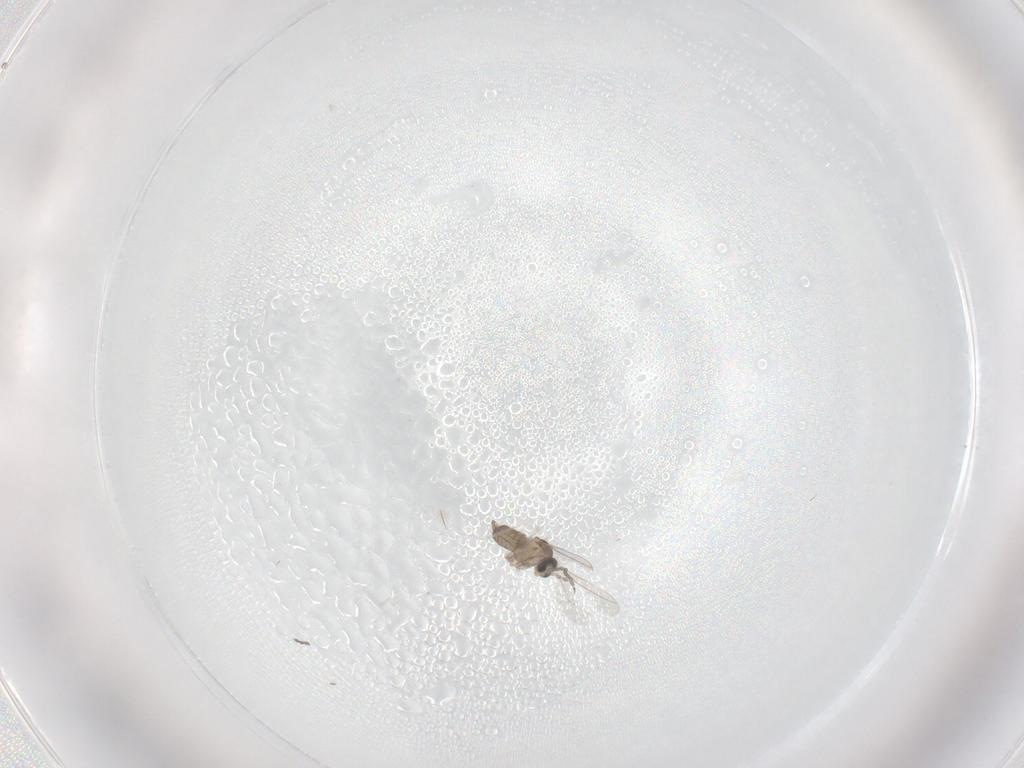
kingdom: Animalia
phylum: Arthropoda
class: Insecta
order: Diptera
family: Cecidomyiidae
